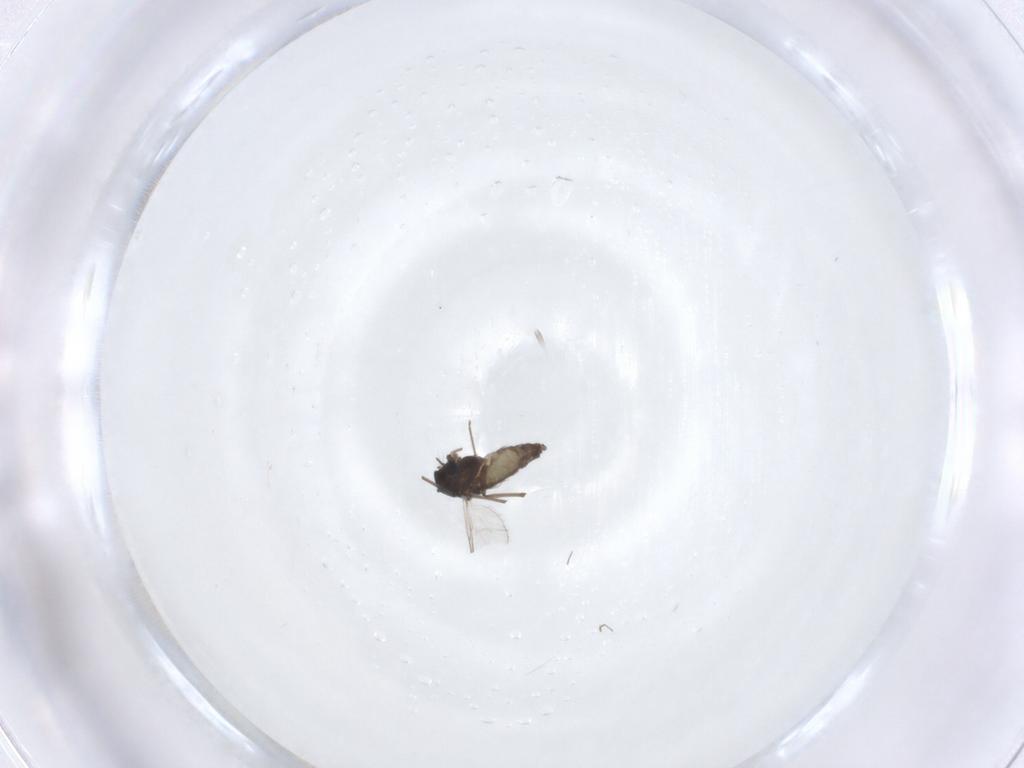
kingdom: Animalia
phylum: Arthropoda
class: Insecta
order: Diptera
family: Chironomidae
